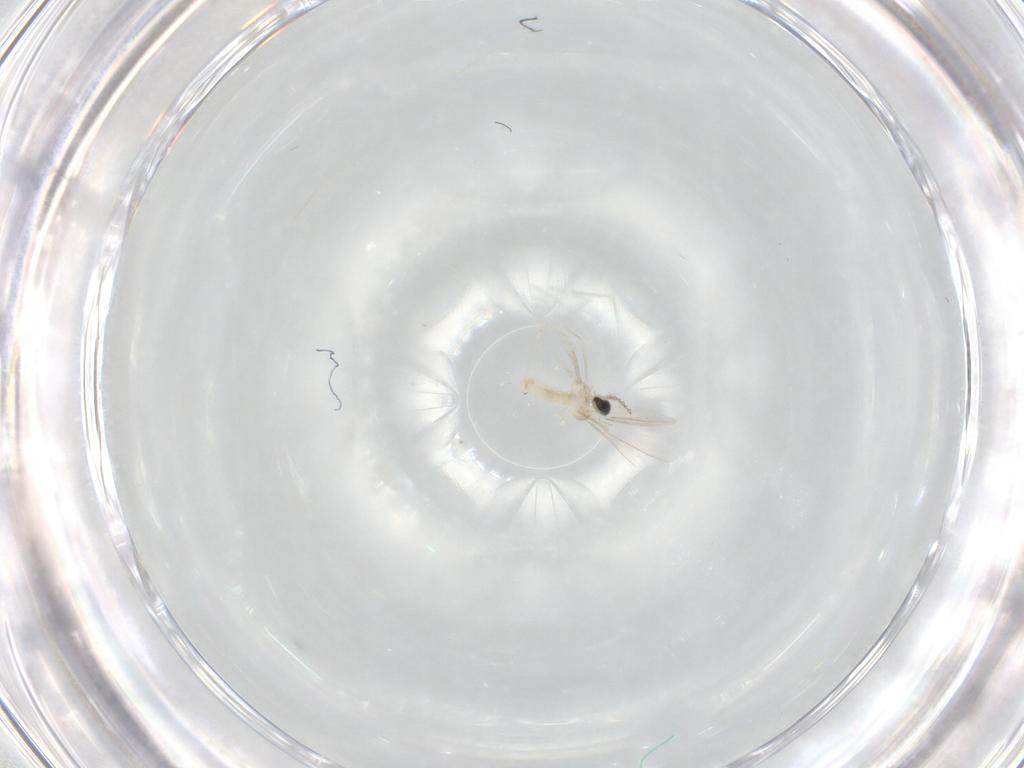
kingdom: Animalia
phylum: Arthropoda
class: Insecta
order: Diptera
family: Cecidomyiidae
